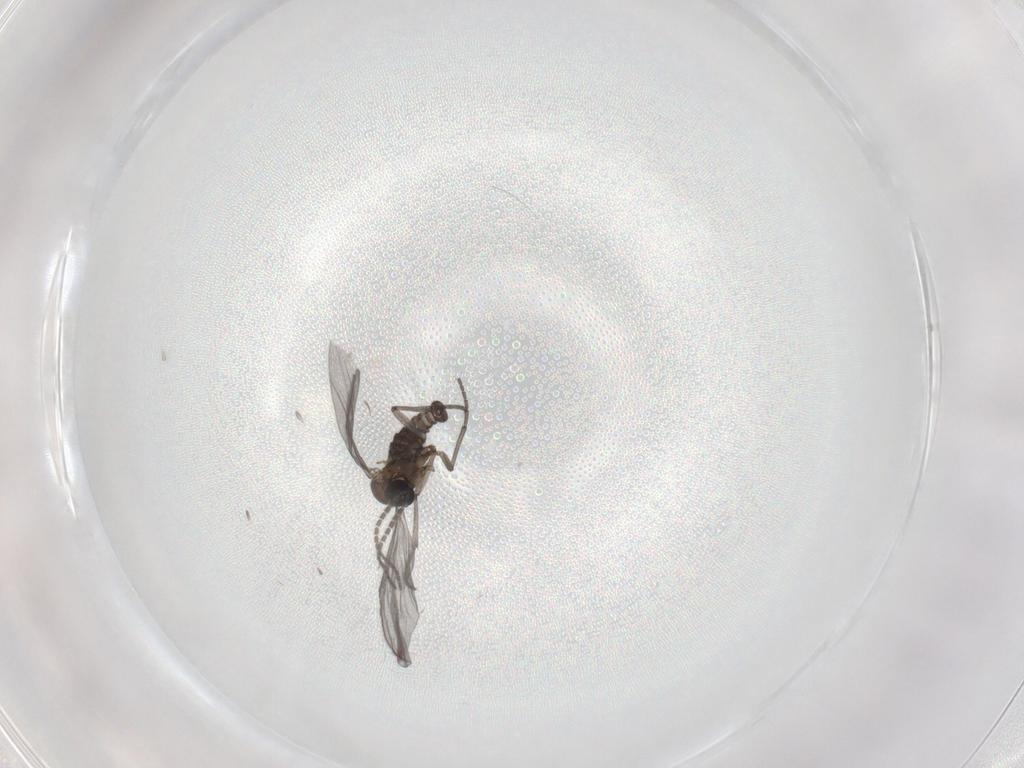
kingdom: Animalia
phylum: Arthropoda
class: Insecta
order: Diptera
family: Sciaridae
